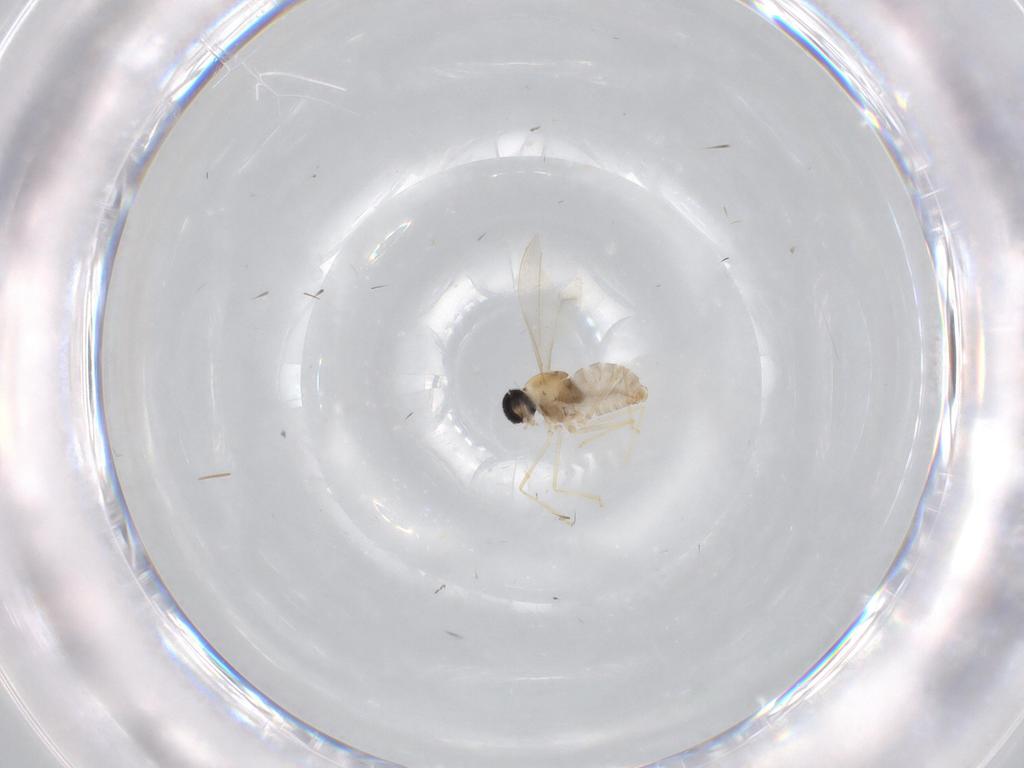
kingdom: Animalia
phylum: Arthropoda
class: Insecta
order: Diptera
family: Cecidomyiidae
